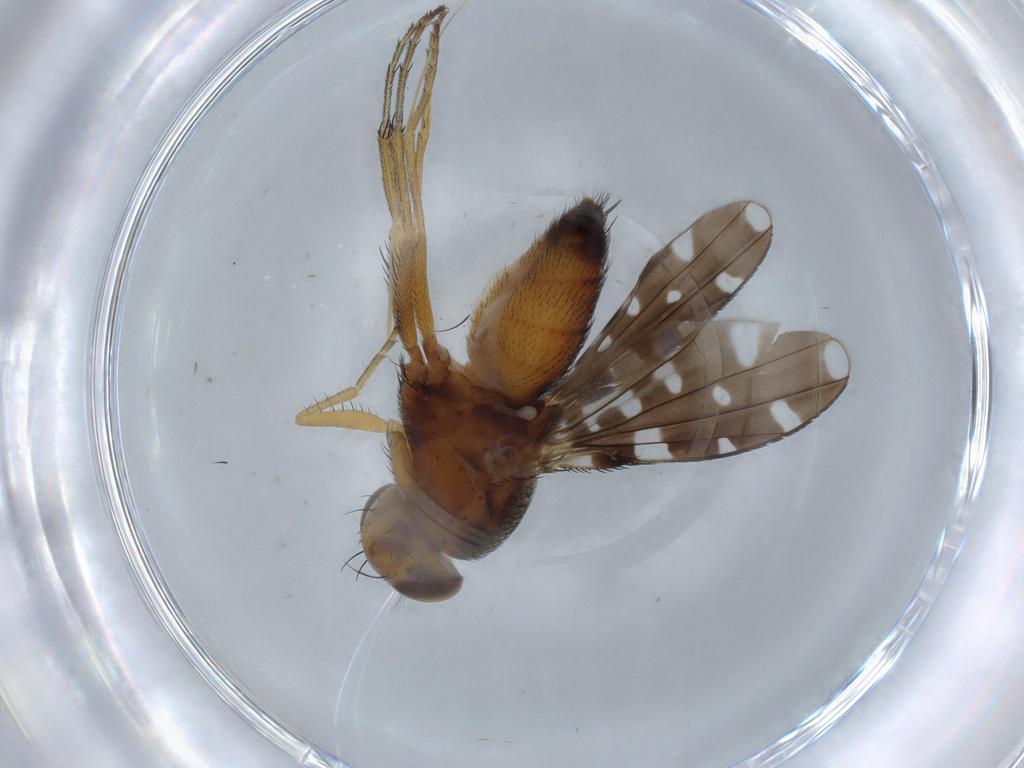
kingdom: Animalia
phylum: Arthropoda
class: Insecta
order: Diptera
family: Ephydridae
